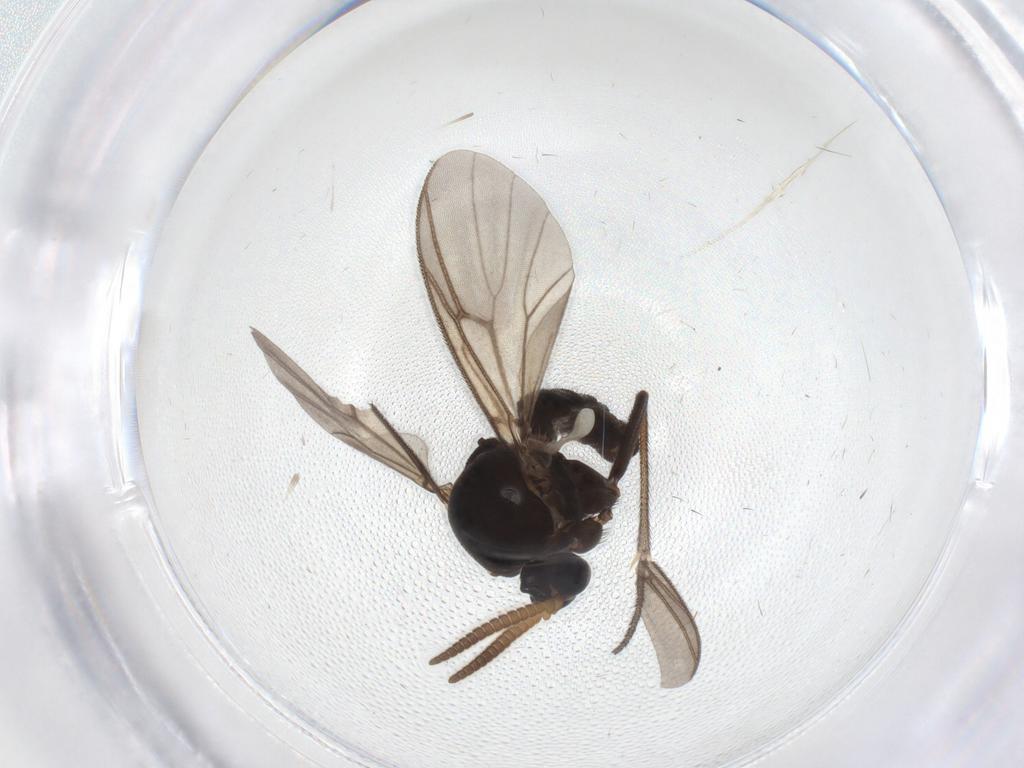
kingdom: Animalia
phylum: Arthropoda
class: Insecta
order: Diptera
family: Mycetophilidae
